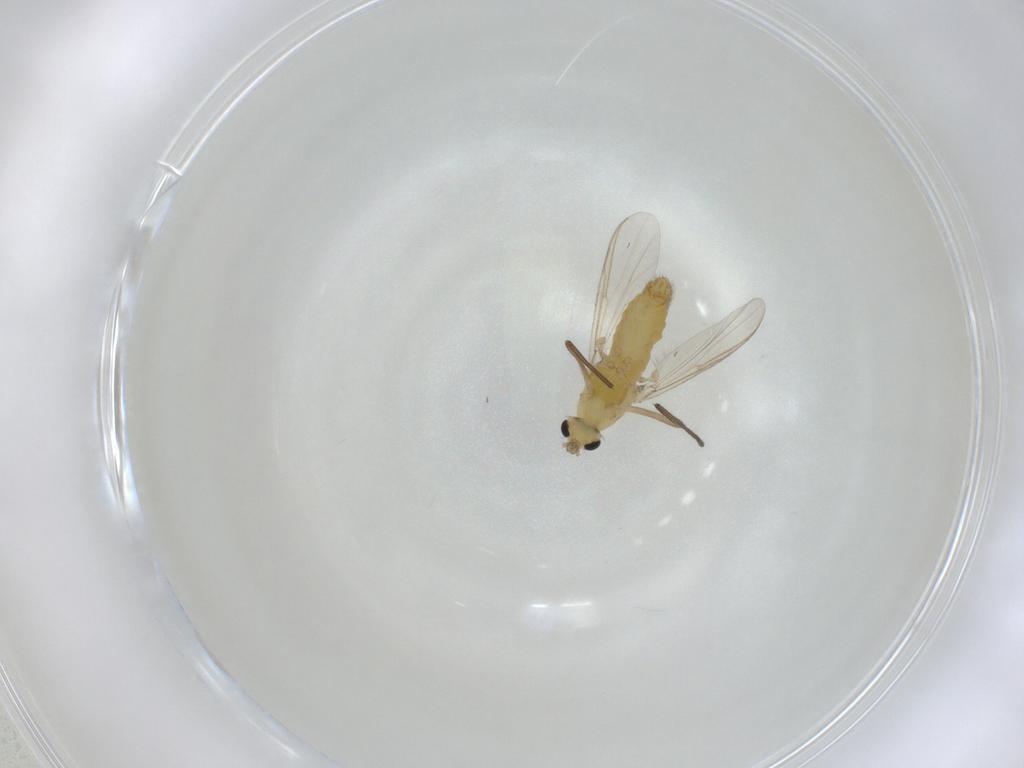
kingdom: Animalia
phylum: Arthropoda
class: Insecta
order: Diptera
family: Chironomidae
